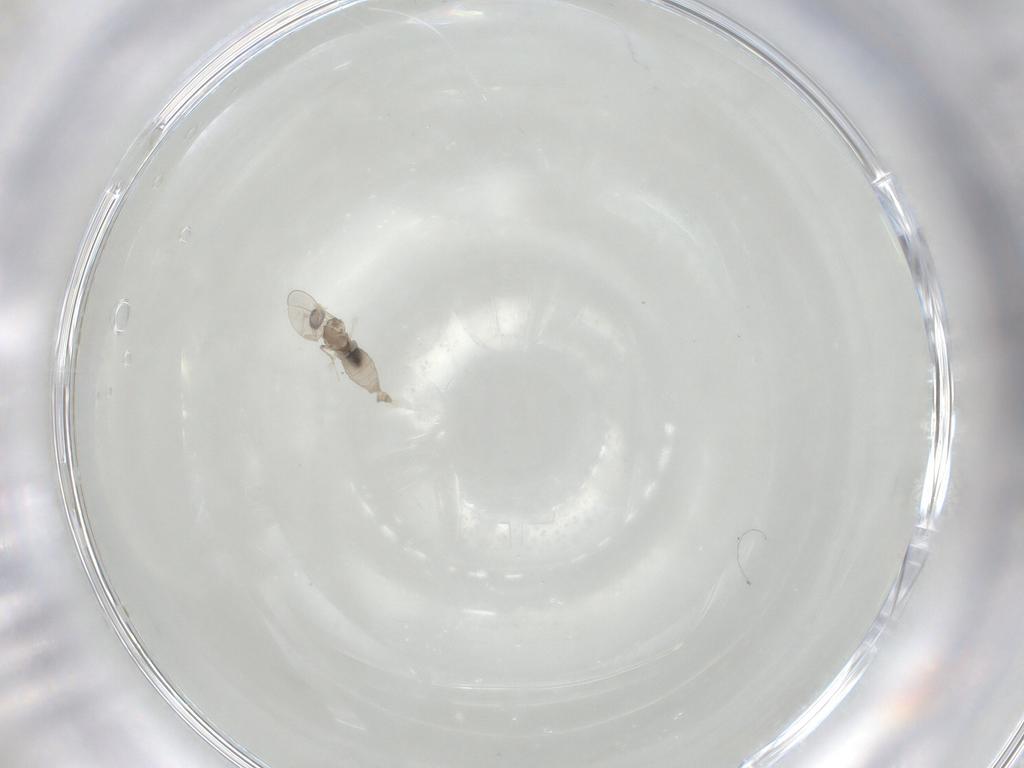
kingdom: Animalia
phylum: Arthropoda
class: Insecta
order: Diptera
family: Cecidomyiidae
